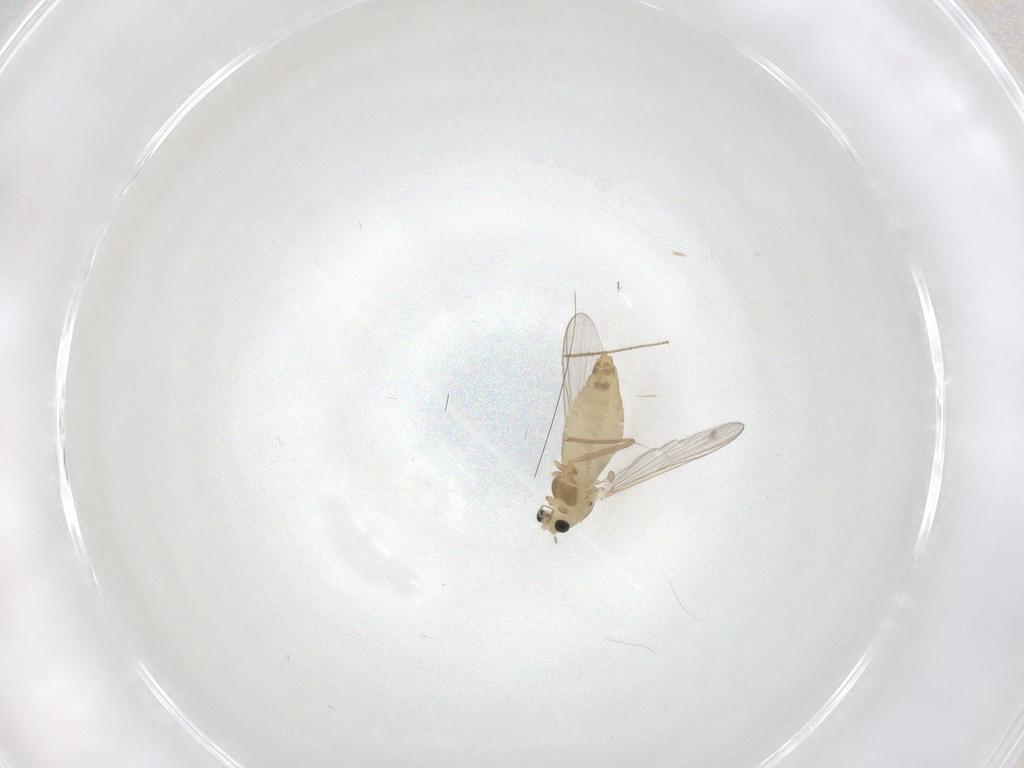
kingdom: Animalia
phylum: Arthropoda
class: Insecta
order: Diptera
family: Chironomidae
